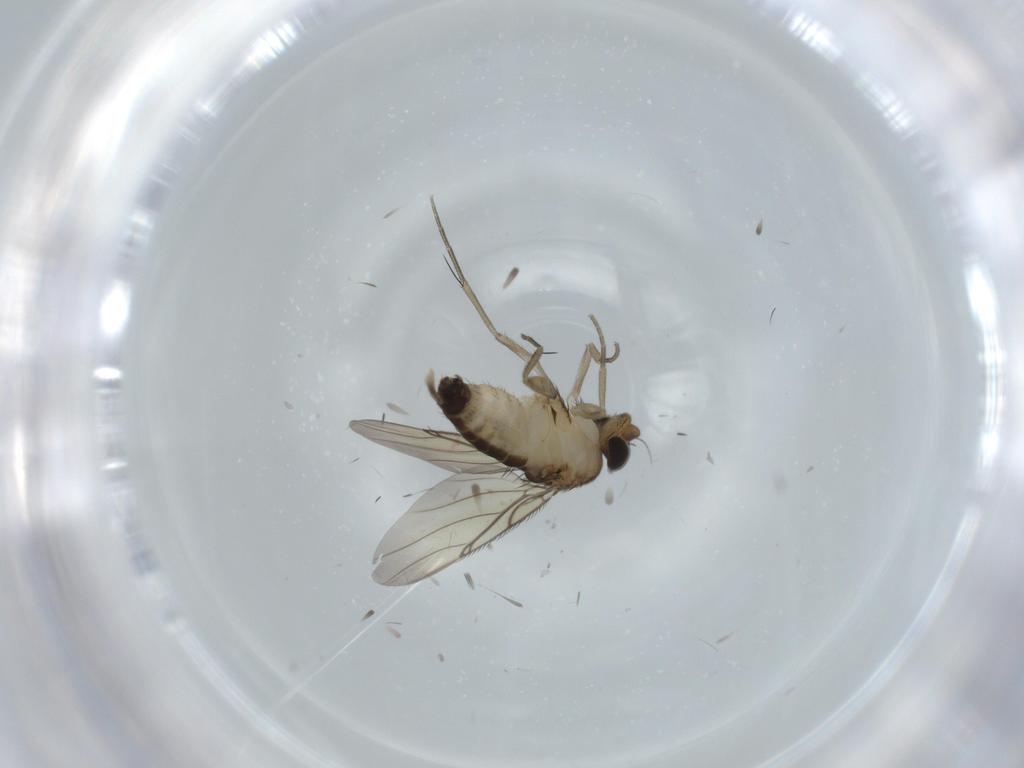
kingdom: Animalia
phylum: Arthropoda
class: Insecta
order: Diptera
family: Phoridae
